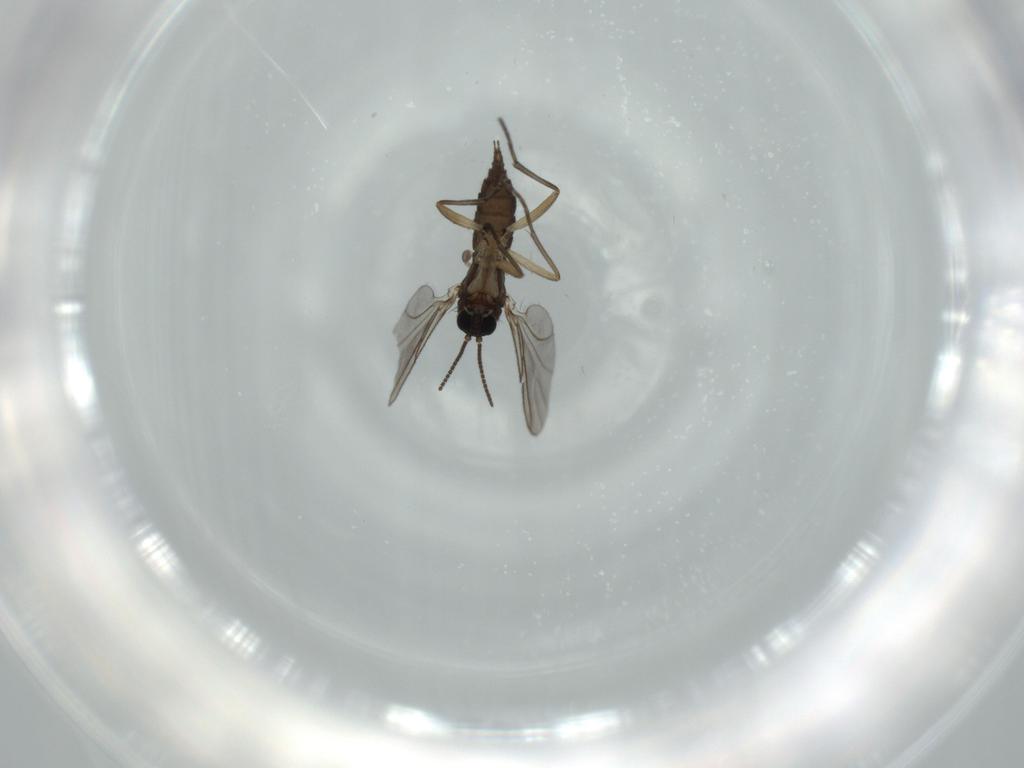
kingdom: Animalia
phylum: Arthropoda
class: Insecta
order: Diptera
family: Sciaridae
